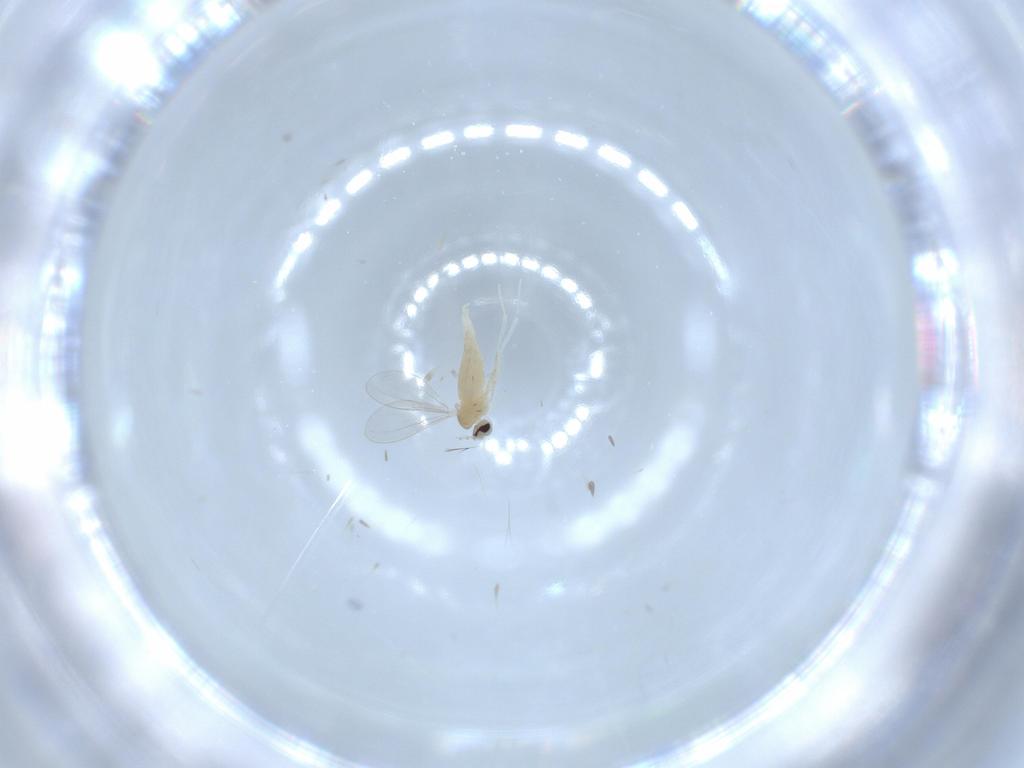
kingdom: Animalia
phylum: Arthropoda
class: Insecta
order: Diptera
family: Cecidomyiidae
